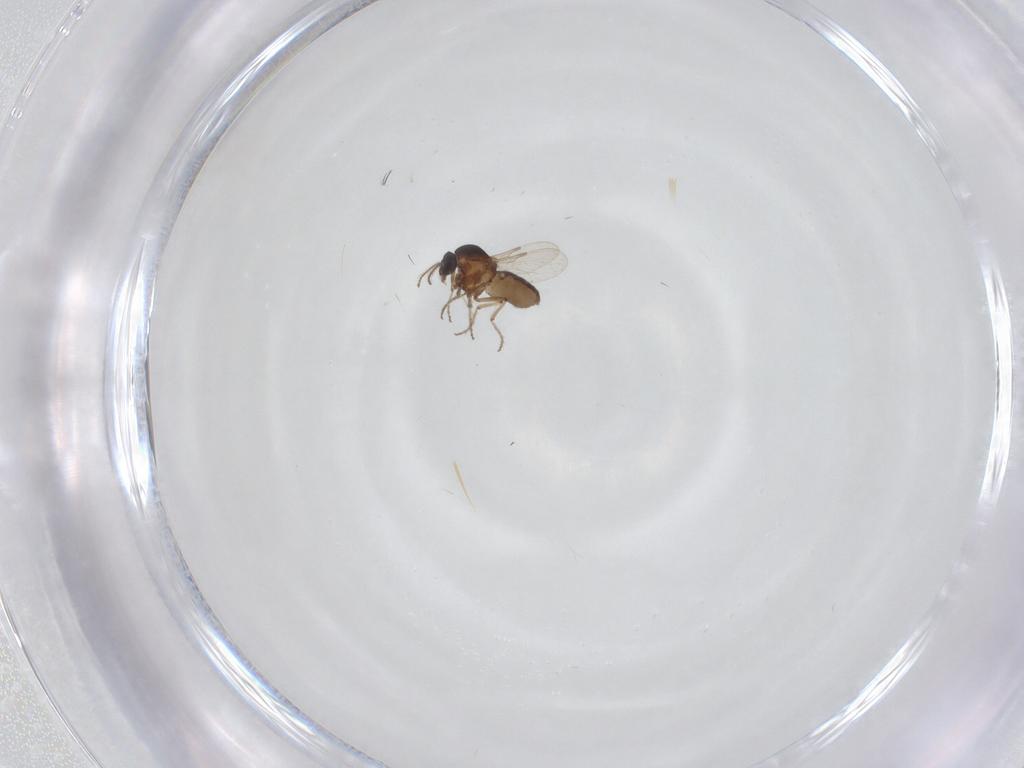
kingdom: Animalia
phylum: Arthropoda
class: Insecta
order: Diptera
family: Ceratopogonidae
